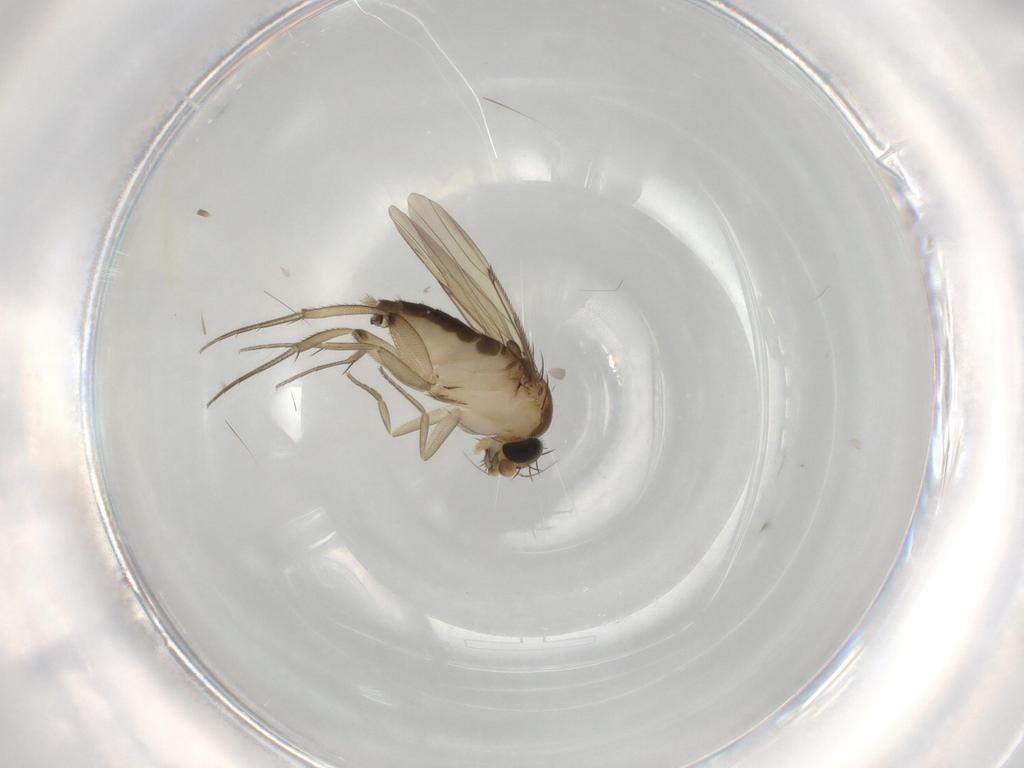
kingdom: Animalia
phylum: Arthropoda
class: Insecta
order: Diptera
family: Phoridae
